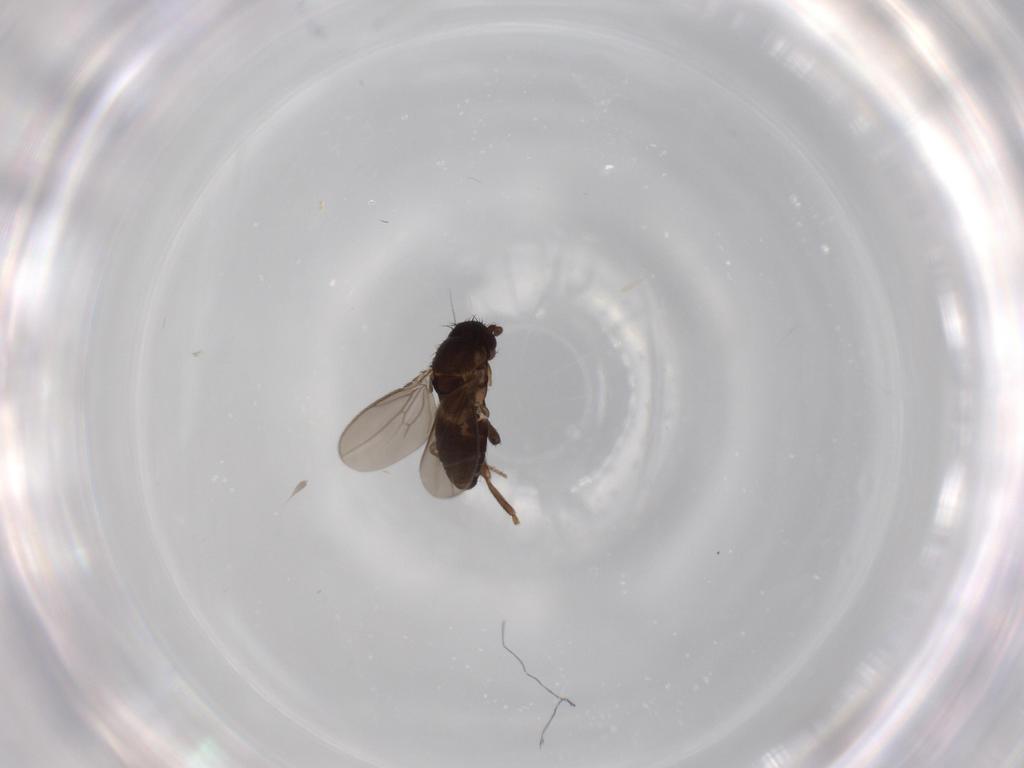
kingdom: Animalia
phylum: Arthropoda
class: Insecta
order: Diptera
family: Sphaeroceridae
